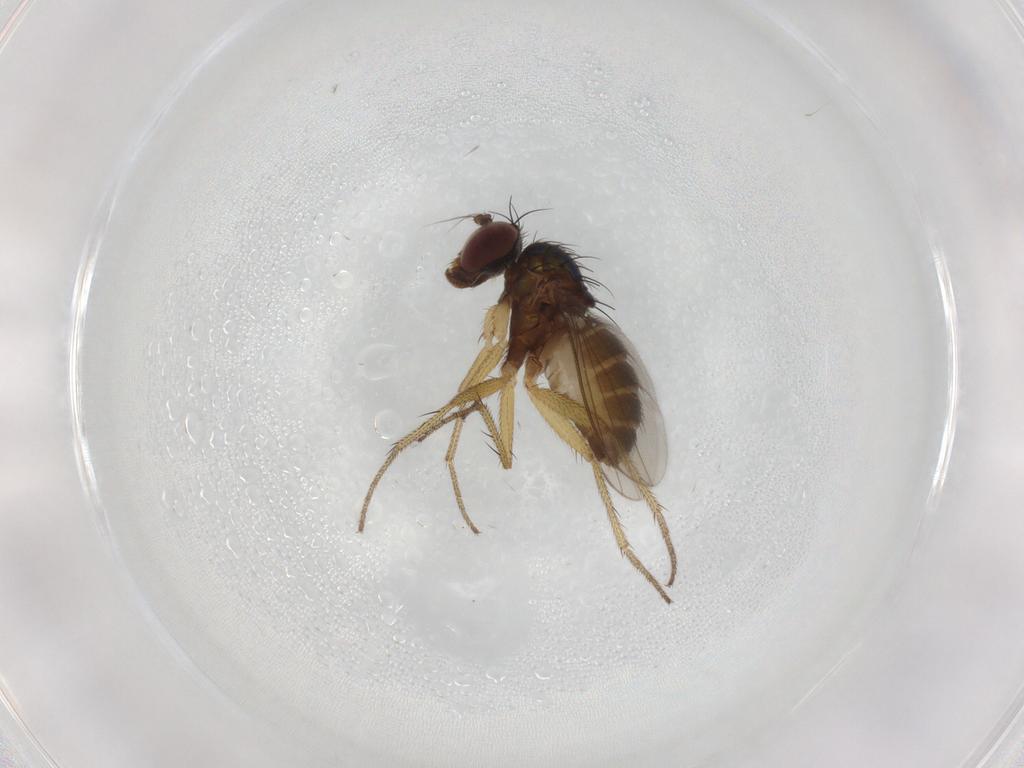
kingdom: Animalia
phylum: Arthropoda
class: Insecta
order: Diptera
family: Dolichopodidae
